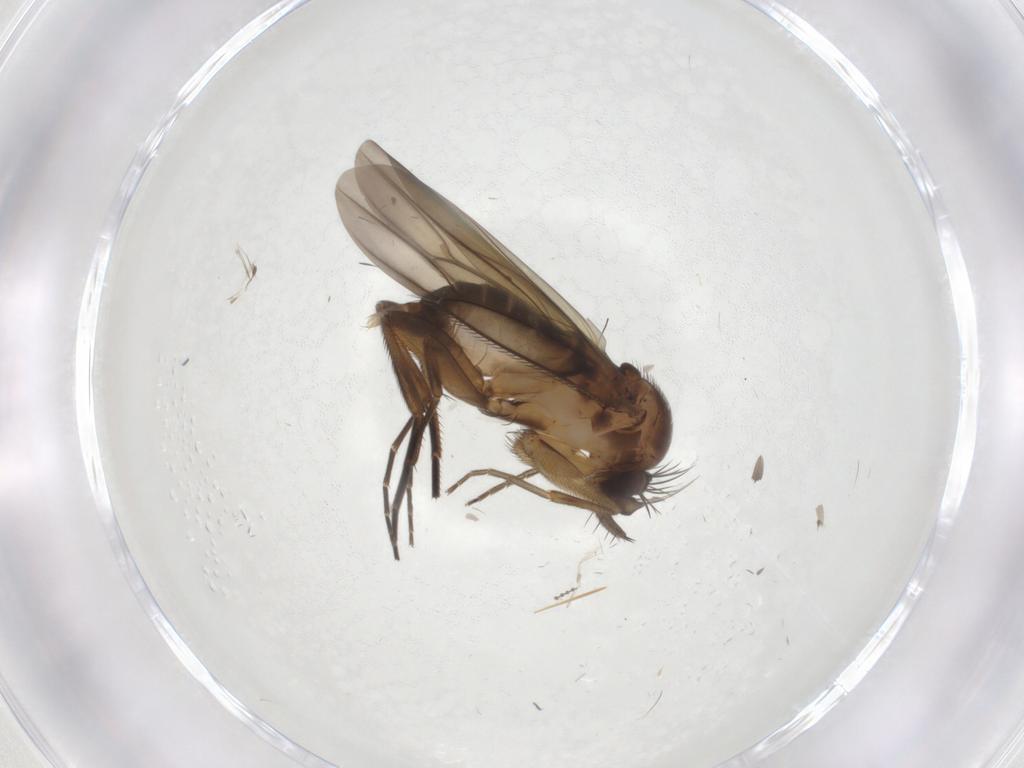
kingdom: Animalia
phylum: Arthropoda
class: Insecta
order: Diptera
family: Phoridae
